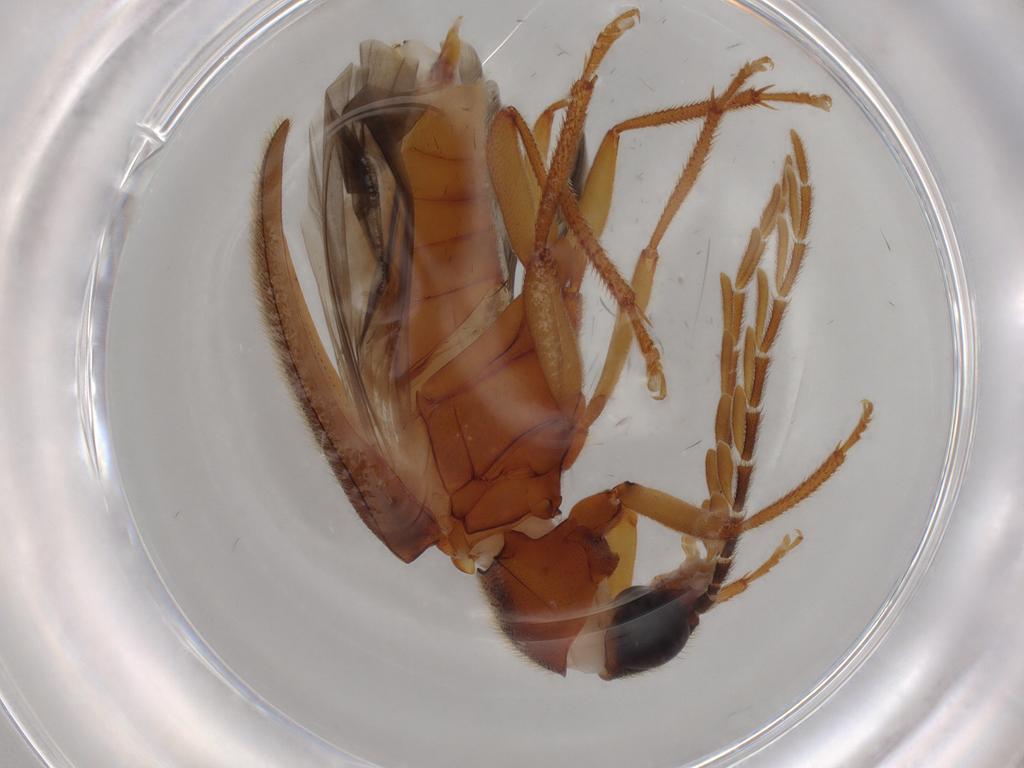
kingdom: Animalia
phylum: Arthropoda
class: Insecta
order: Coleoptera
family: Ptilodactylidae
